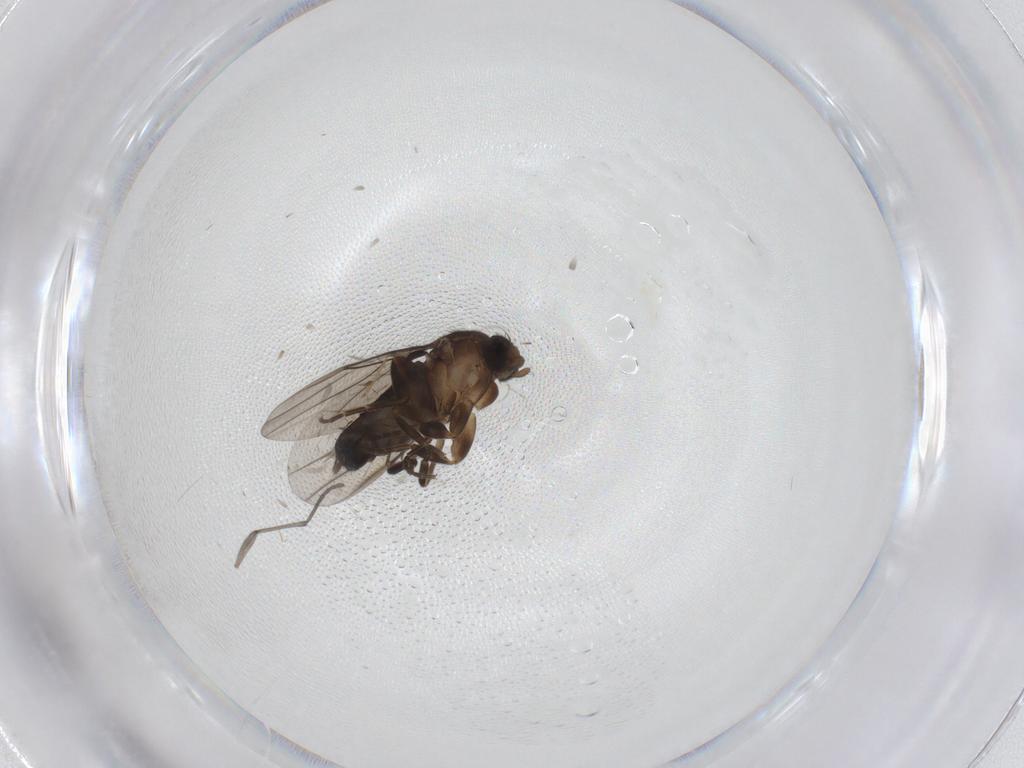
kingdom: Animalia
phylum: Arthropoda
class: Insecta
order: Diptera
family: Sciaridae
